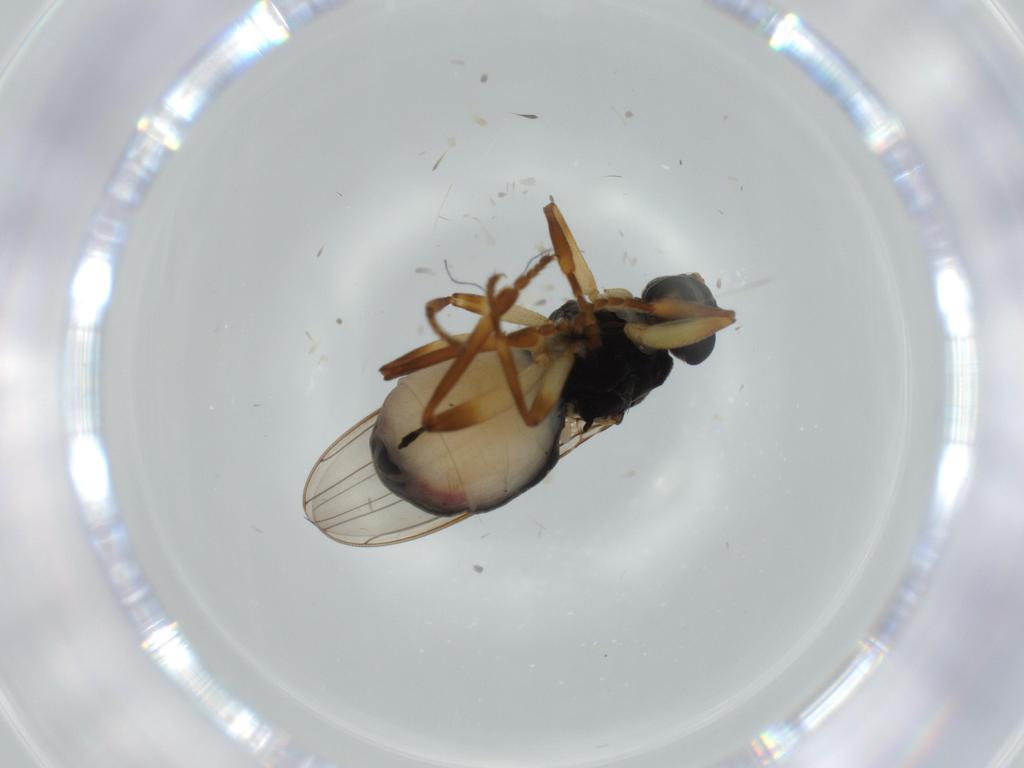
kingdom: Animalia
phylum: Arthropoda
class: Insecta
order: Diptera
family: Sphaeroceridae
